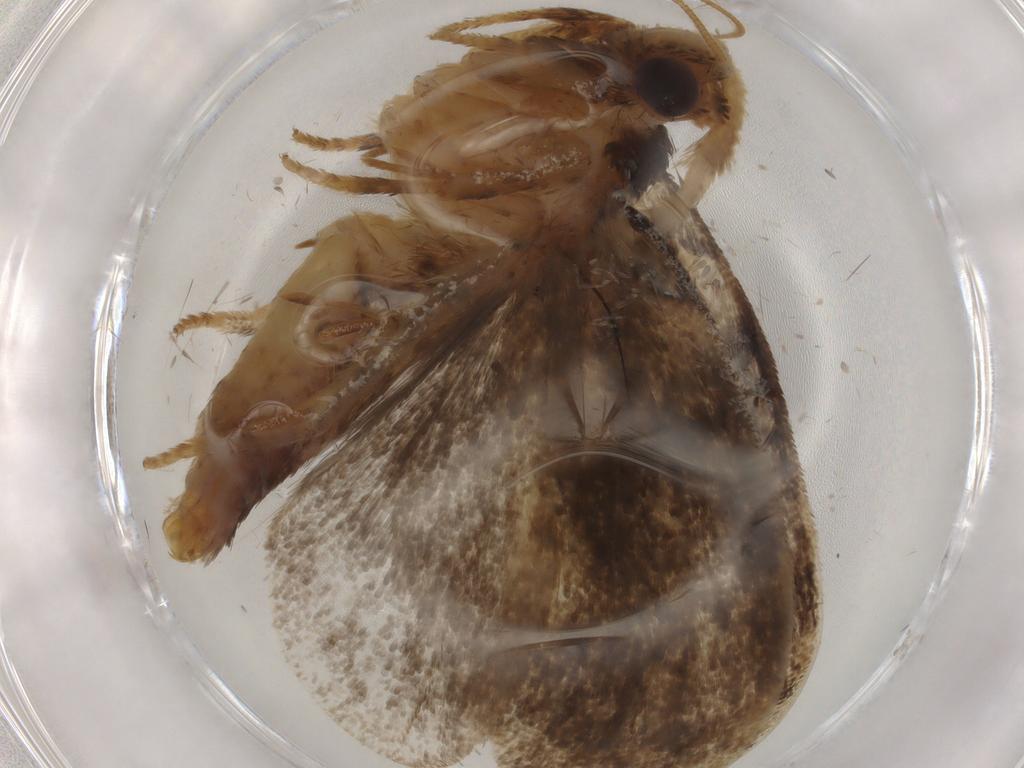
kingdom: Animalia
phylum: Arthropoda
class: Insecta
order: Lepidoptera
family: Tineidae
